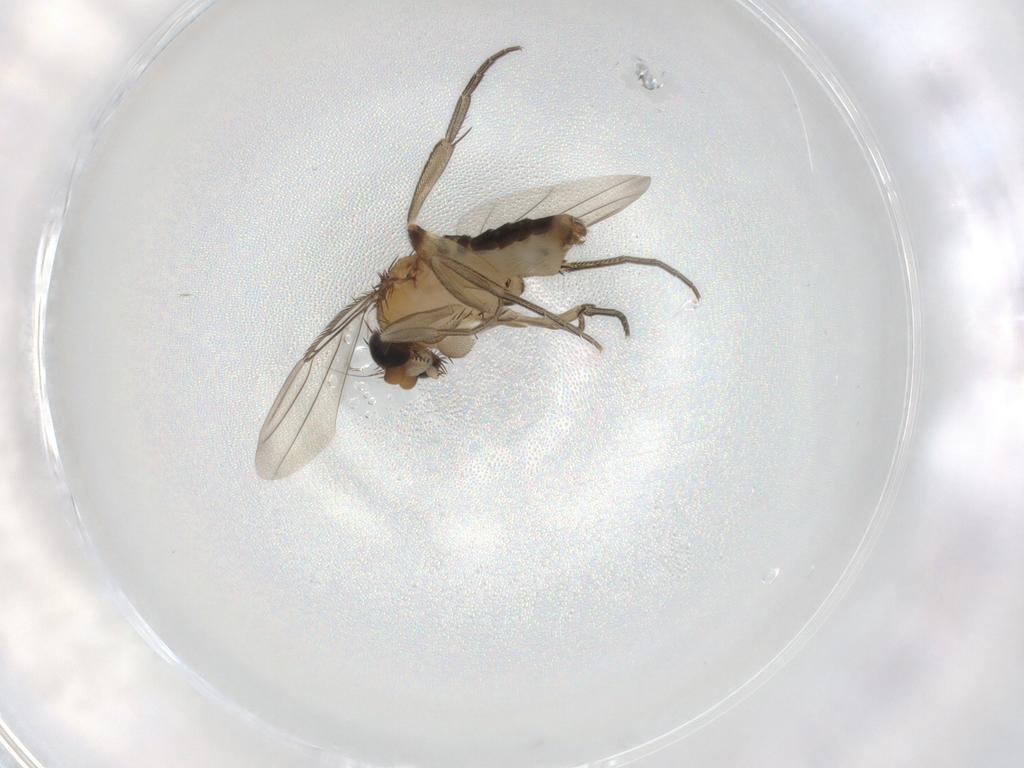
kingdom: Animalia
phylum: Arthropoda
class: Insecta
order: Diptera
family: Phoridae
